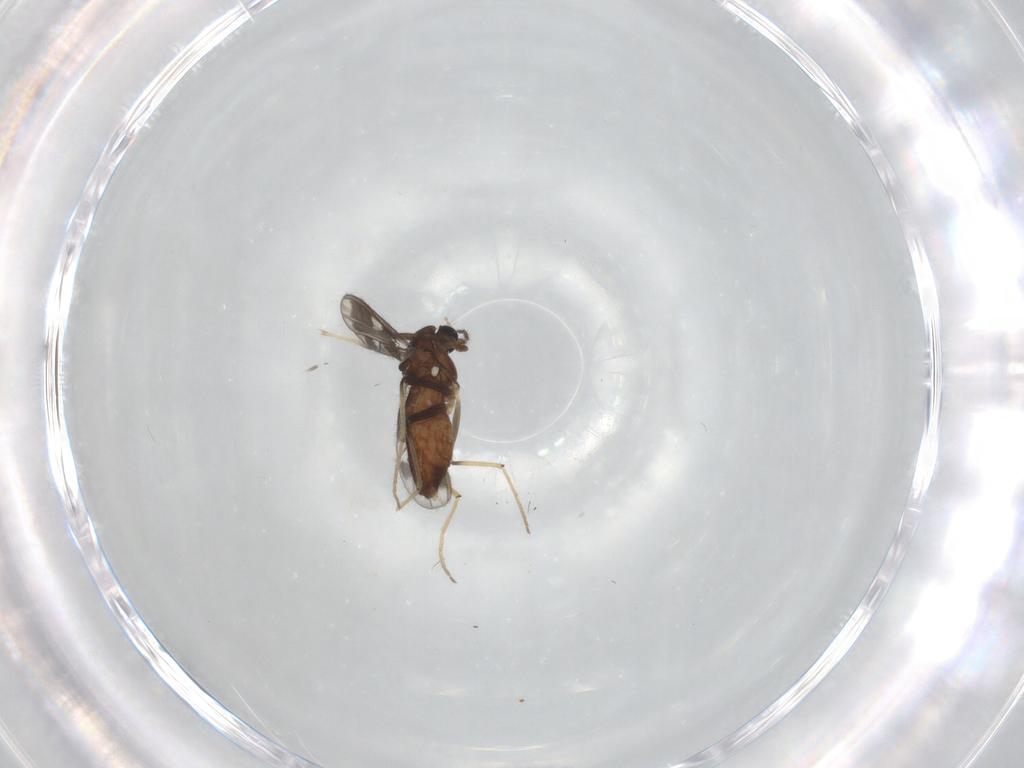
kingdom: Animalia
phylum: Arthropoda
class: Insecta
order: Diptera
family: Chironomidae
